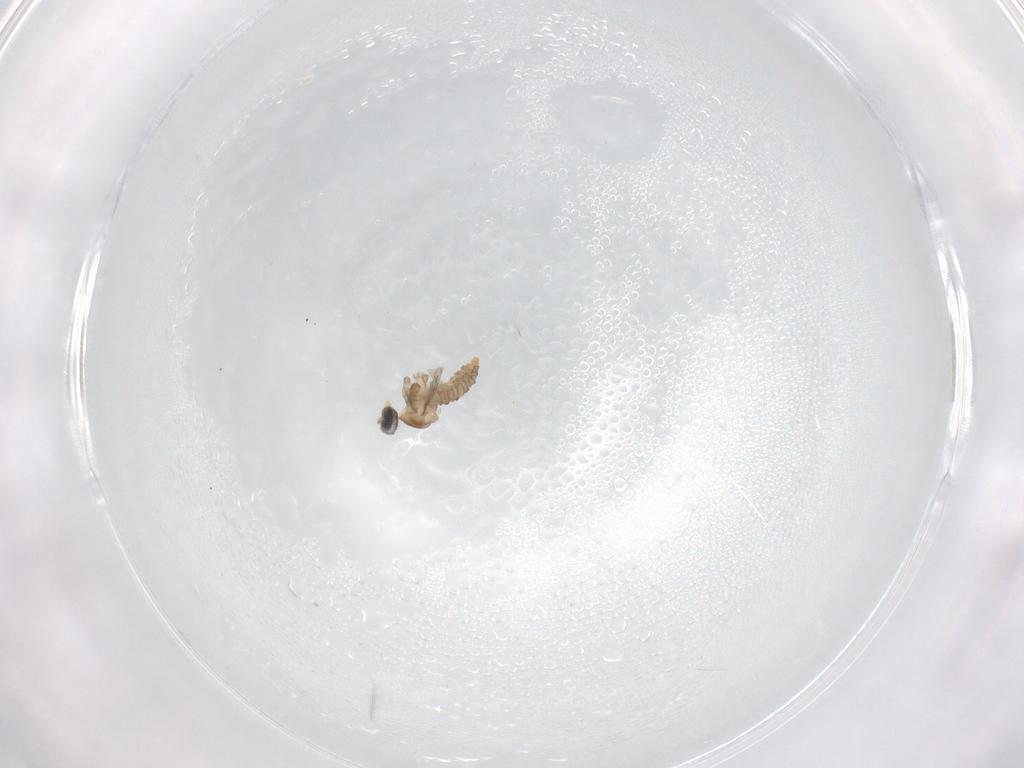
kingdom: Animalia
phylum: Arthropoda
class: Insecta
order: Diptera
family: Cecidomyiidae
